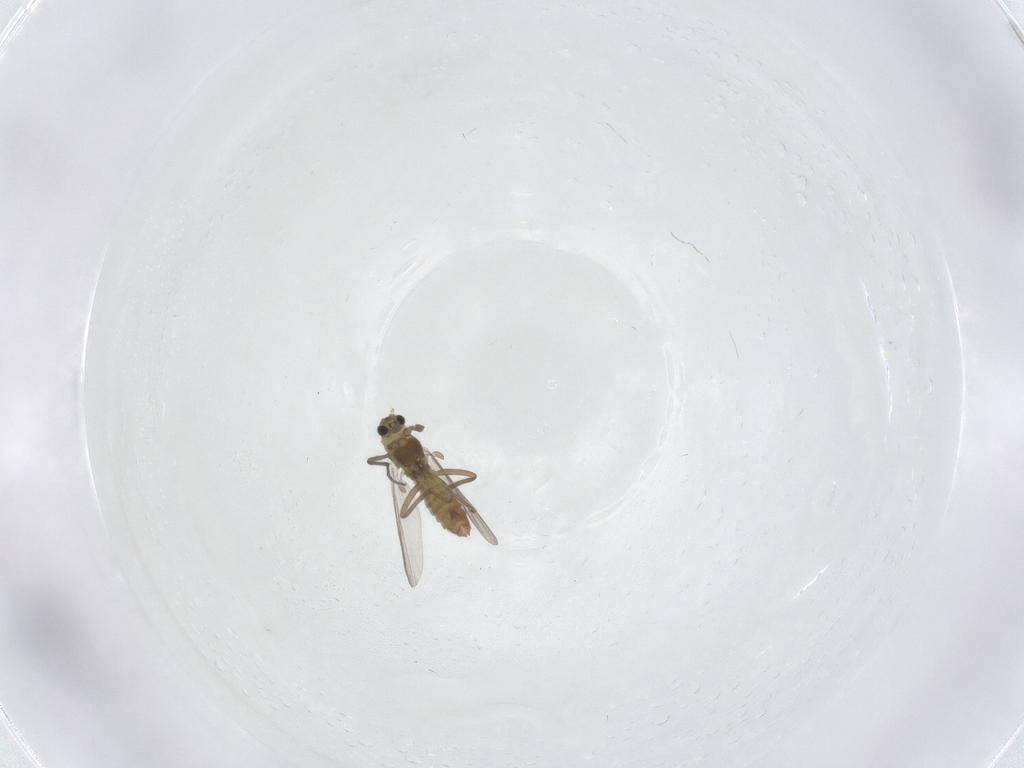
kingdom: Animalia
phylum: Arthropoda
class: Insecta
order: Diptera
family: Chironomidae
